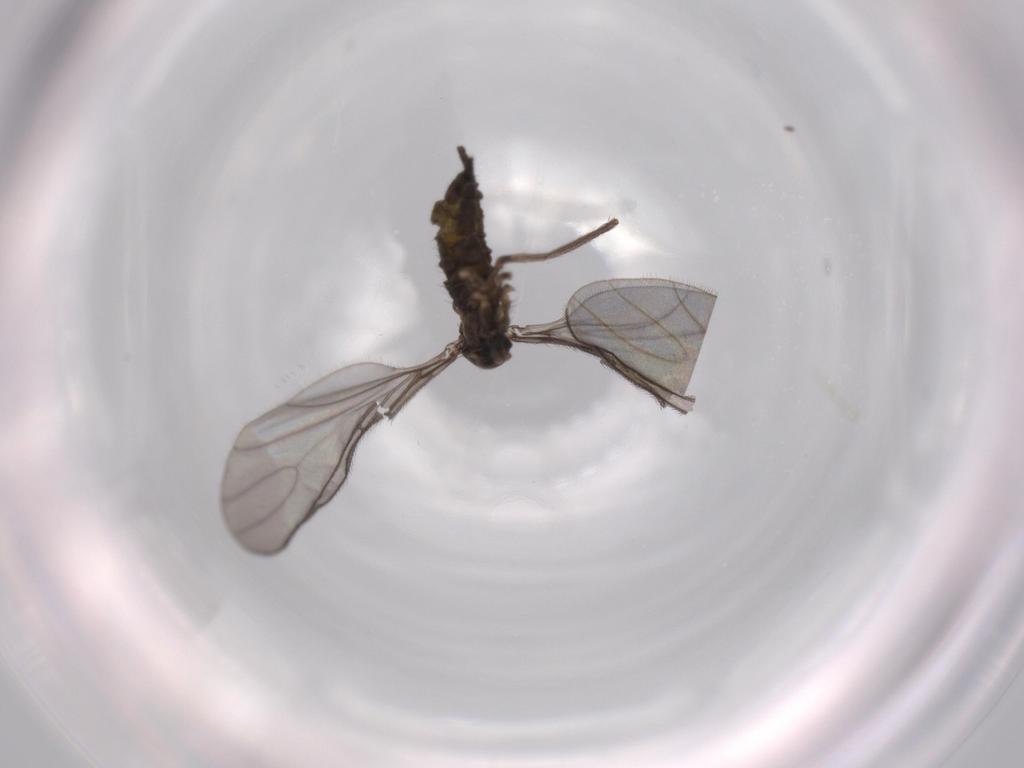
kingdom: Animalia
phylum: Arthropoda
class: Insecta
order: Diptera
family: Sciaridae
